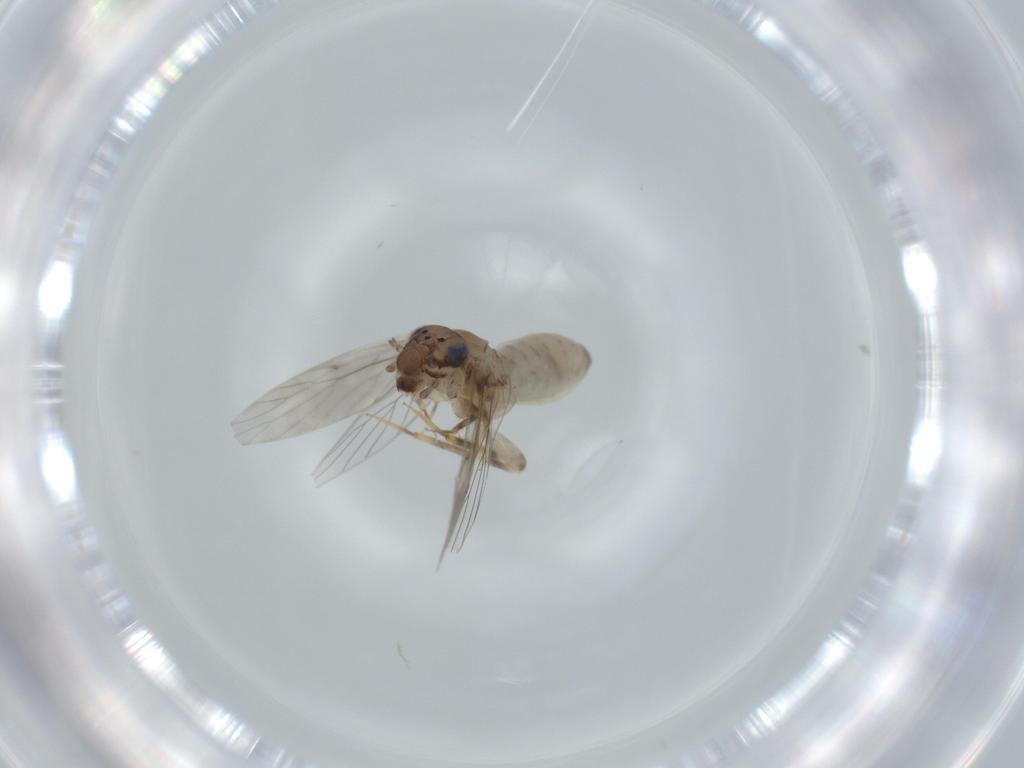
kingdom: Animalia
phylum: Arthropoda
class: Insecta
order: Psocodea
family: Lepidopsocidae
